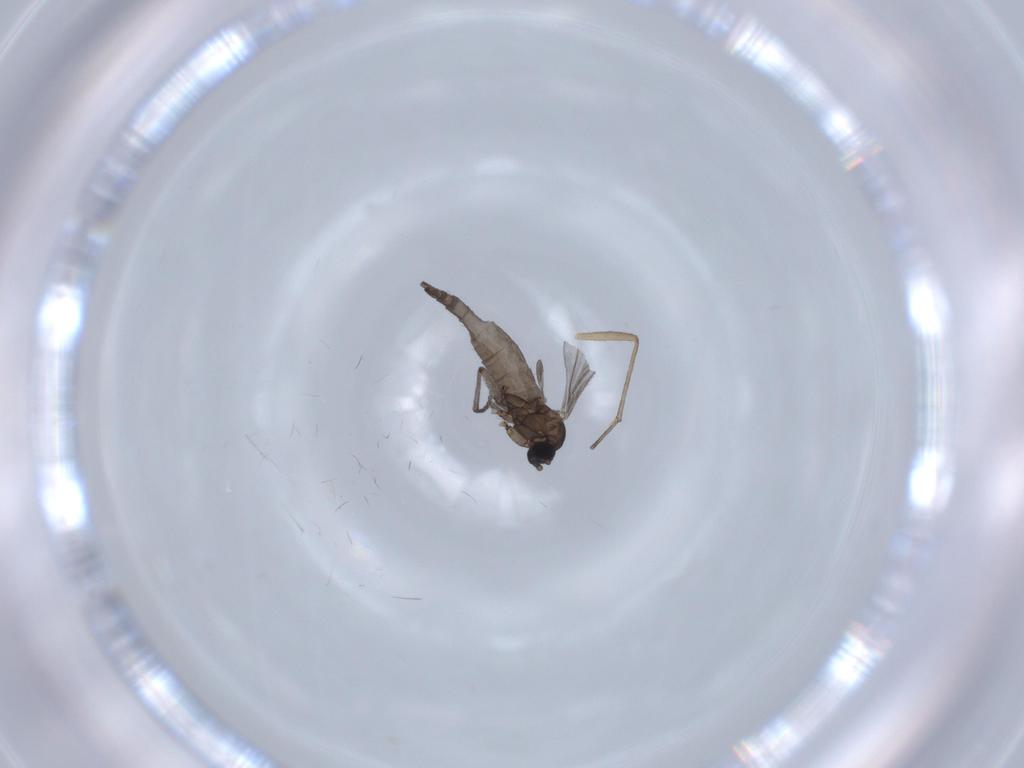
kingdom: Animalia
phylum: Arthropoda
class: Insecta
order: Diptera
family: Sciaridae
